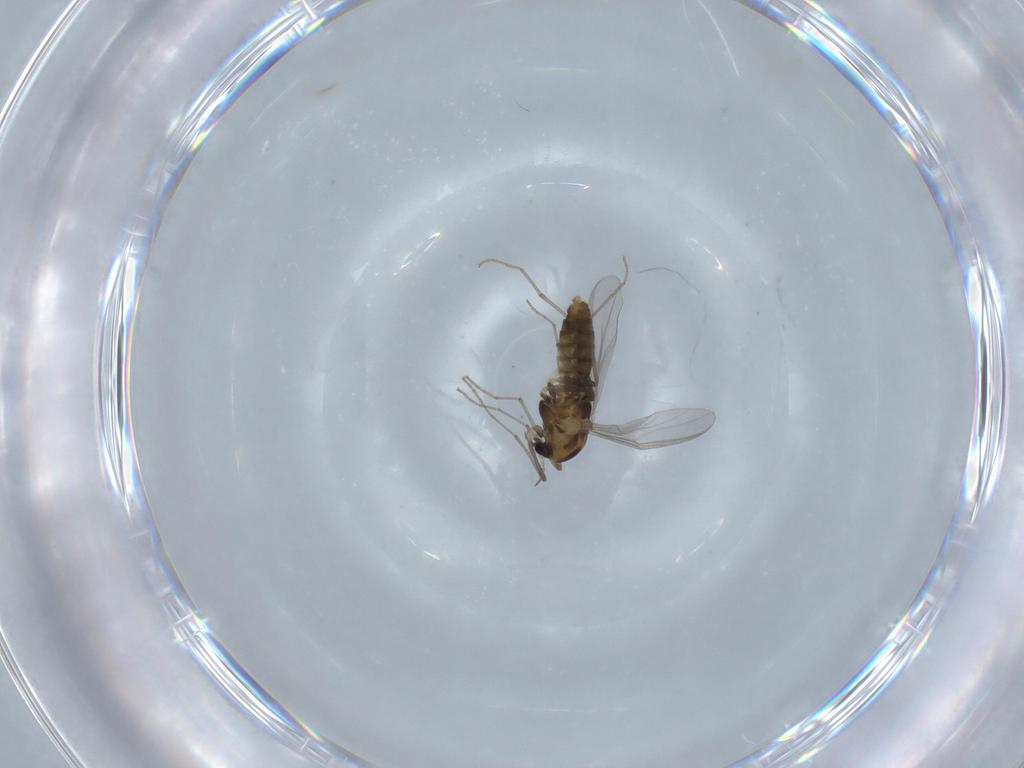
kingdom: Animalia
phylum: Arthropoda
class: Insecta
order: Diptera
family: Chironomidae
